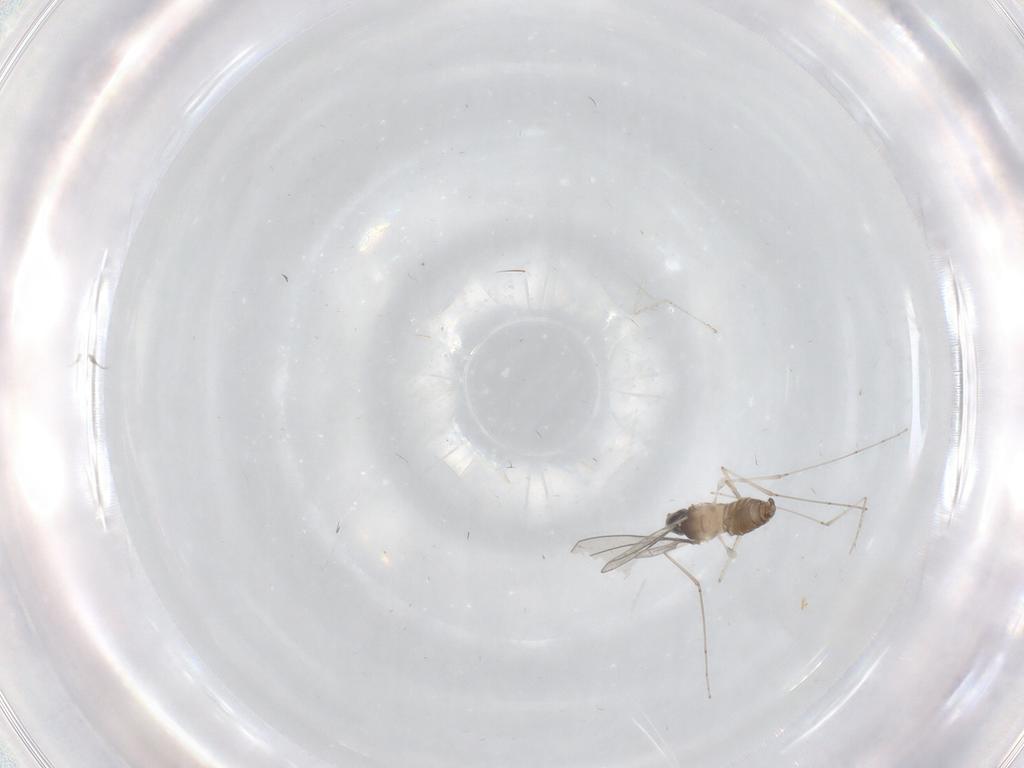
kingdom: Animalia
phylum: Arthropoda
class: Insecta
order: Diptera
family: Cecidomyiidae
